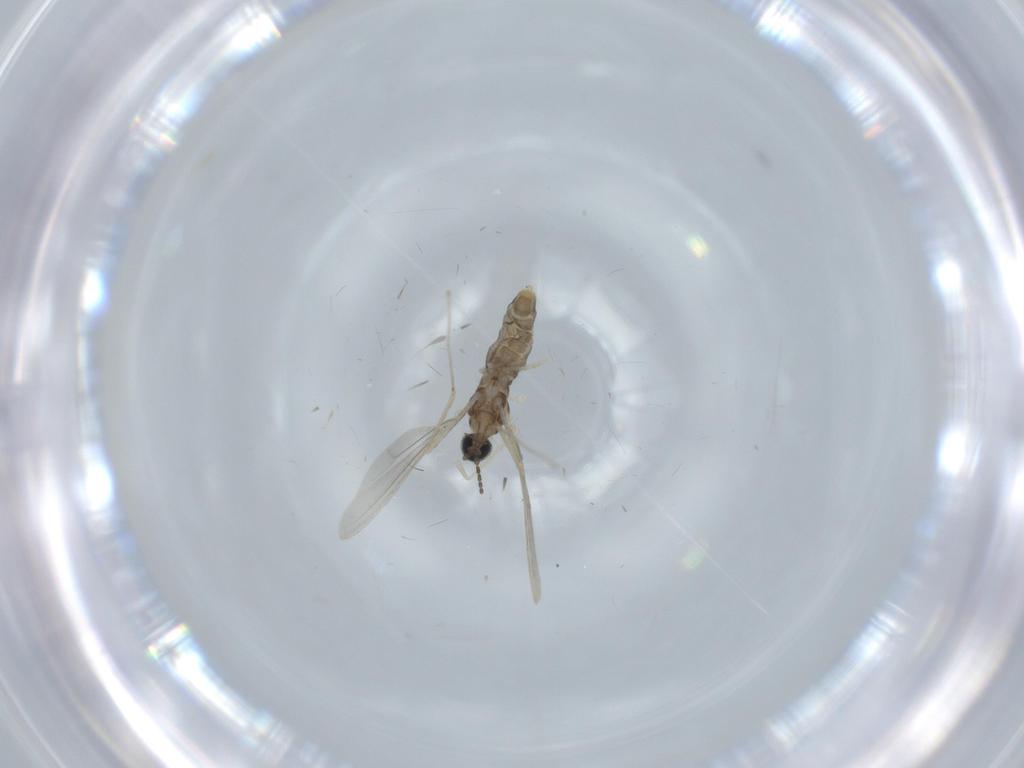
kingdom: Animalia
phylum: Arthropoda
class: Insecta
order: Diptera
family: Cecidomyiidae
